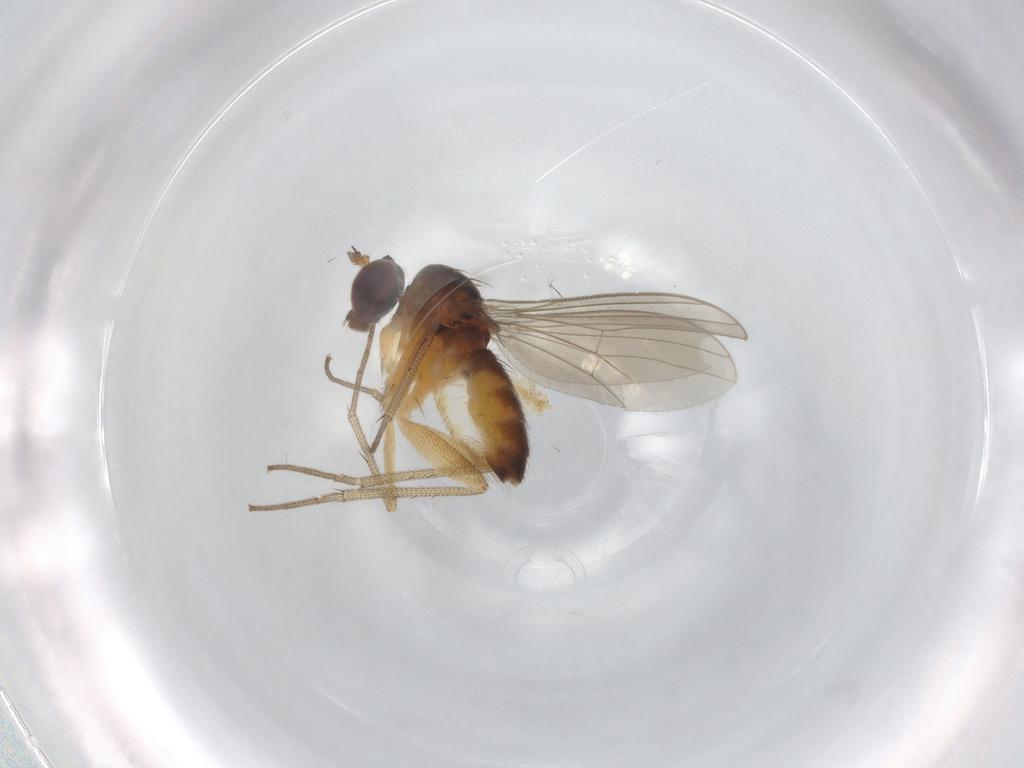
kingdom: Animalia
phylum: Arthropoda
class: Insecta
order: Diptera
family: Dolichopodidae
